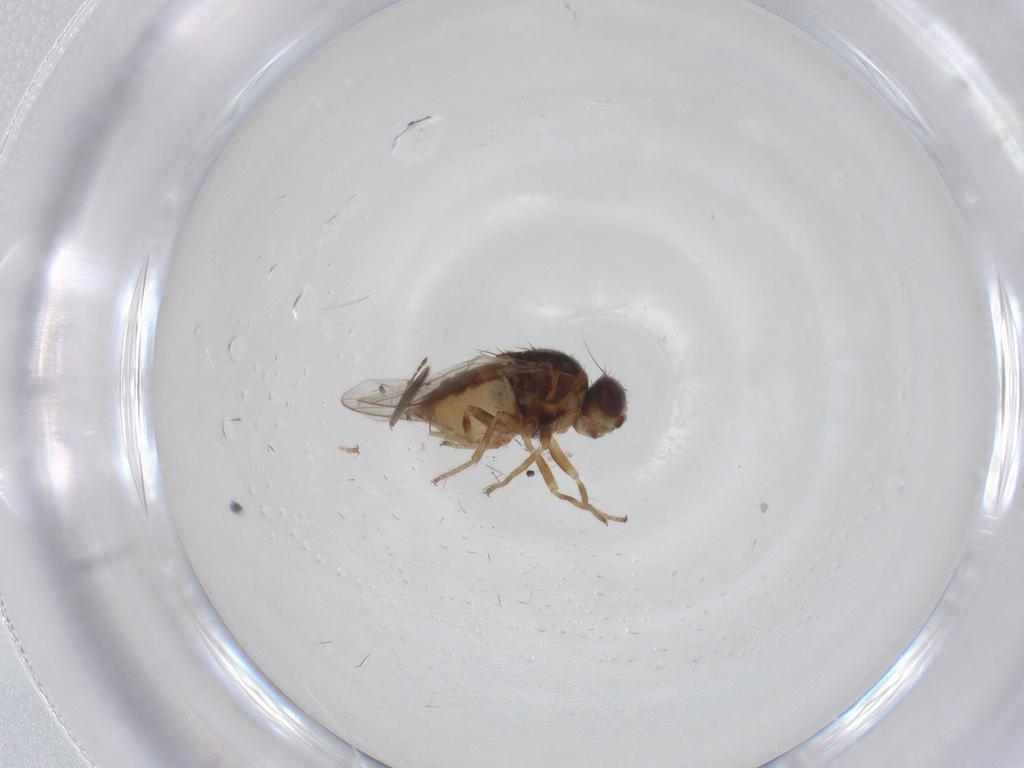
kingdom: Animalia
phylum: Arthropoda
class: Insecta
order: Diptera
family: Chloropidae
